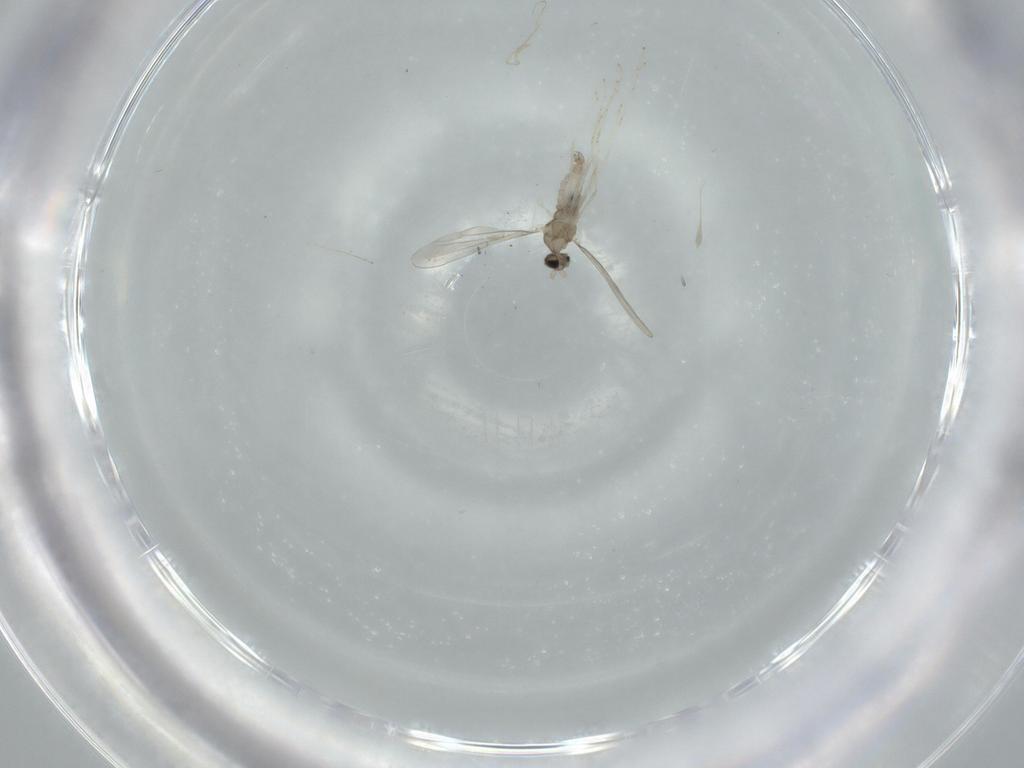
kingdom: Animalia
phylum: Arthropoda
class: Insecta
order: Diptera
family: Cecidomyiidae
